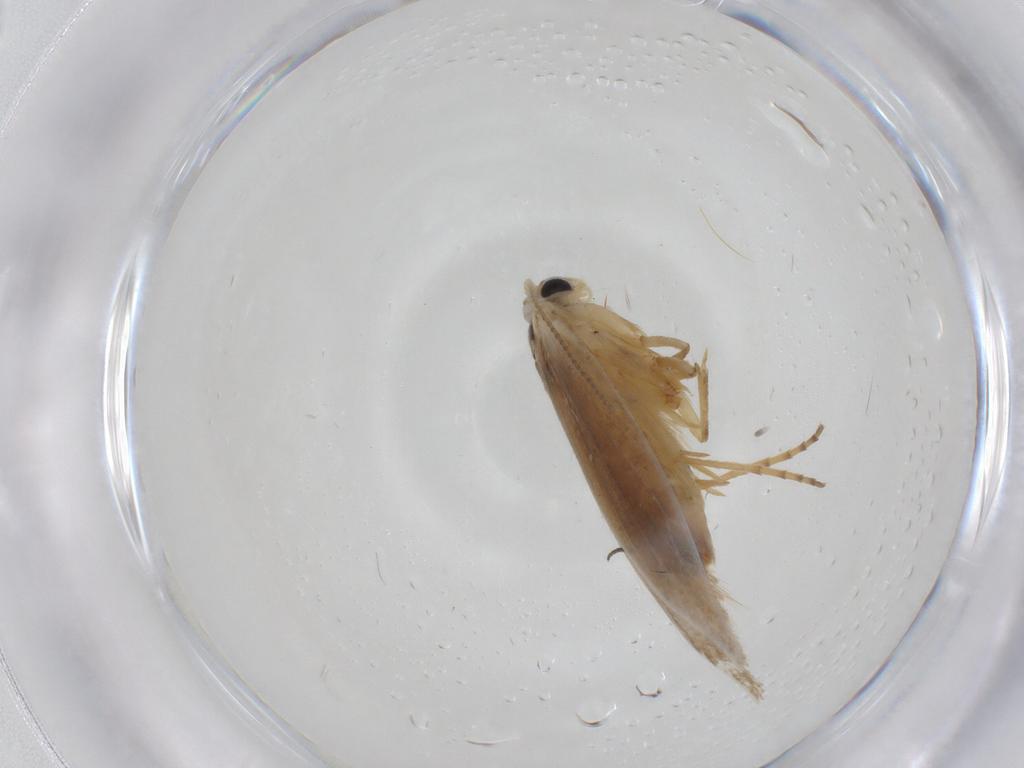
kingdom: Animalia
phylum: Arthropoda
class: Insecta
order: Lepidoptera
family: Bucculatricidae
